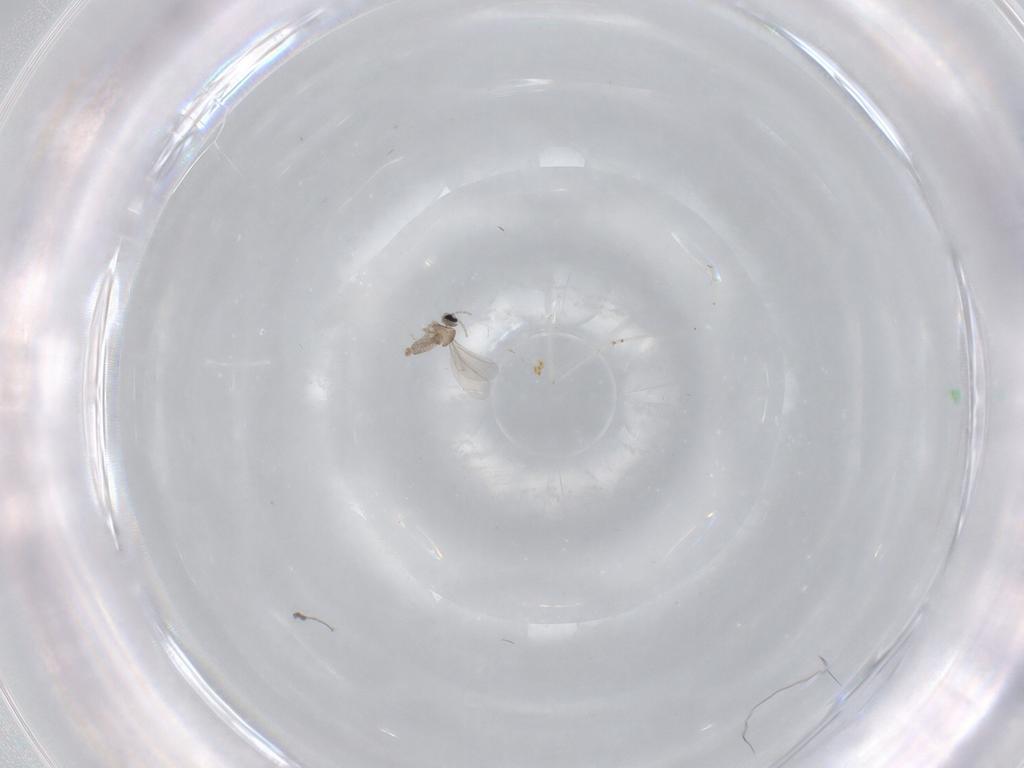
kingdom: Animalia
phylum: Arthropoda
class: Insecta
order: Diptera
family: Cecidomyiidae
